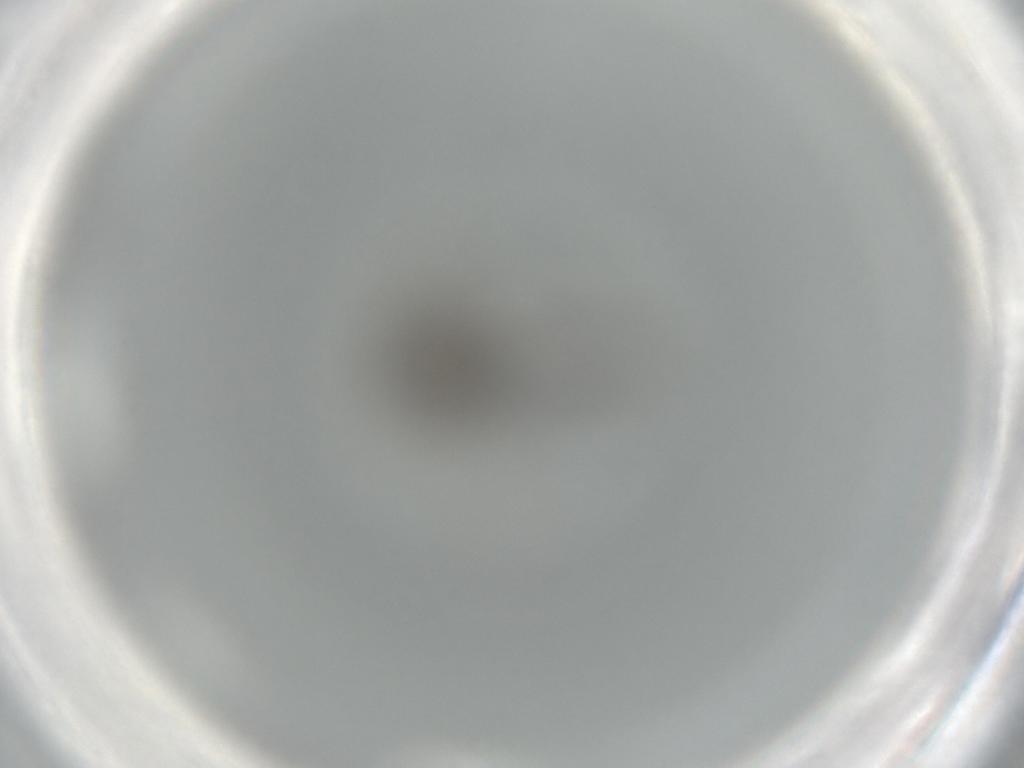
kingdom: Animalia
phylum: Arthropoda
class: Insecta
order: Diptera
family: Chironomidae
